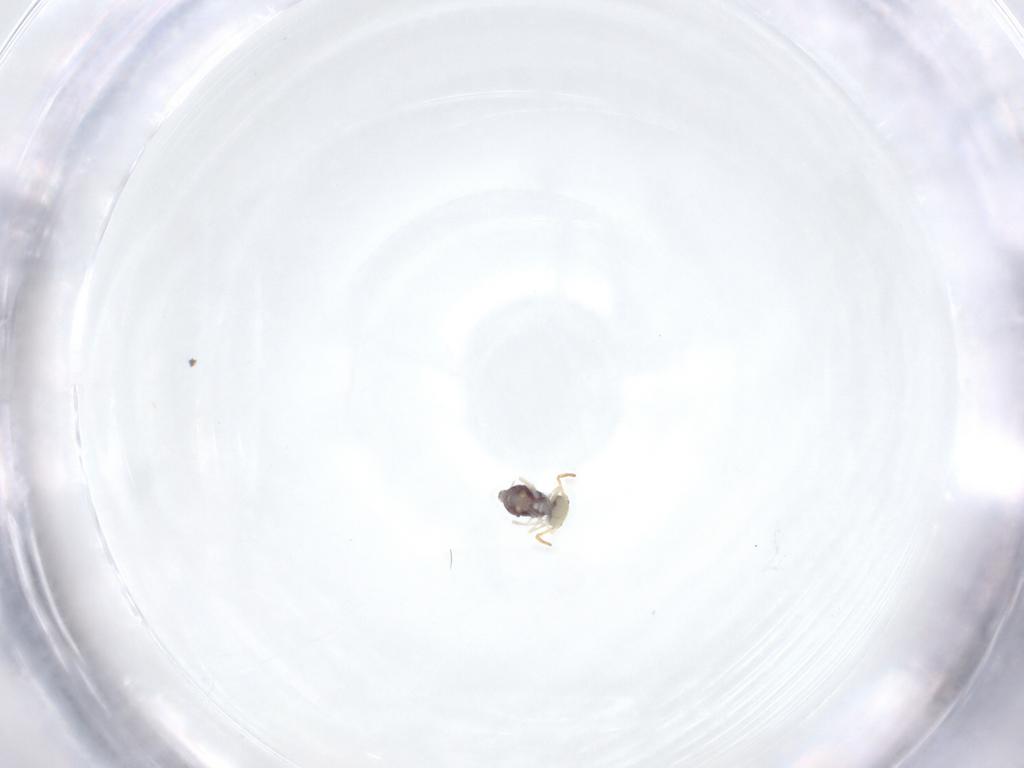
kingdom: Animalia
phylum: Arthropoda
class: Collembola
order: Symphypleona
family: Bourletiellidae
